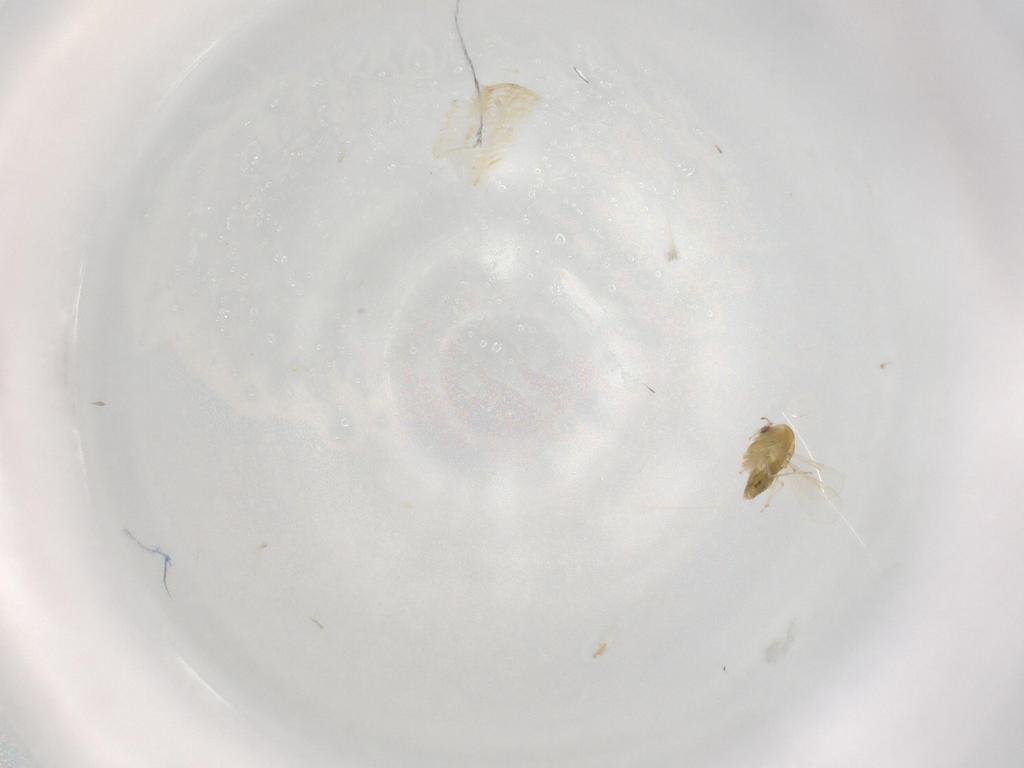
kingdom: Animalia
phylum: Arthropoda
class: Insecta
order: Diptera
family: Chironomidae
